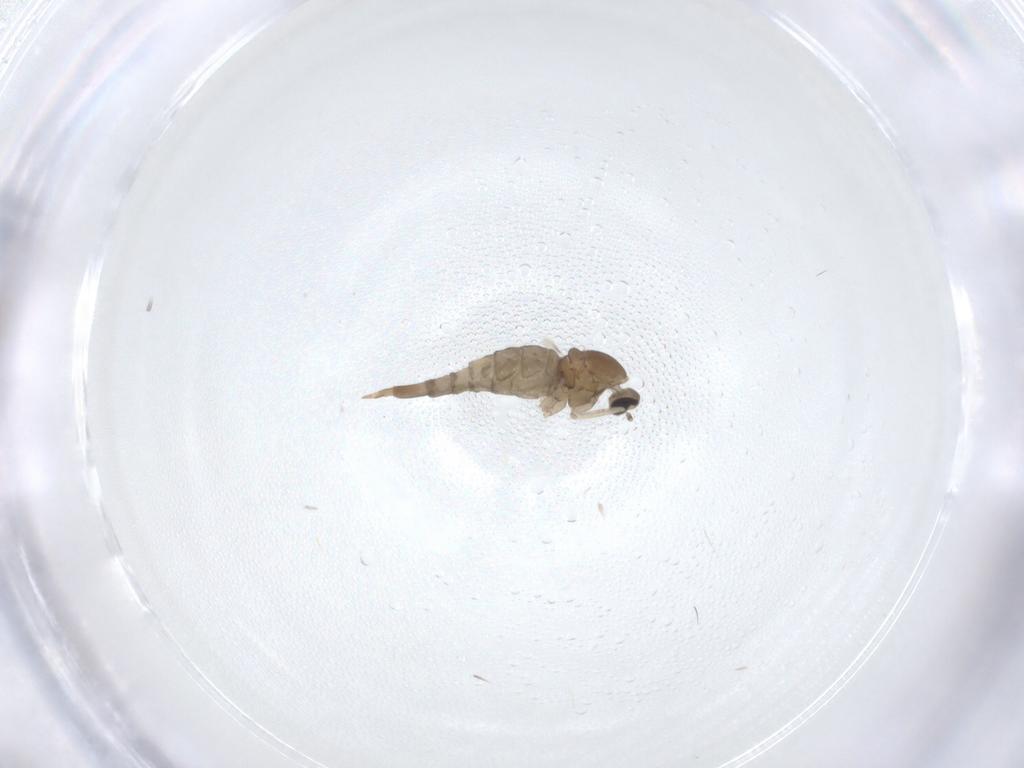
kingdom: Animalia
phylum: Arthropoda
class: Insecta
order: Diptera
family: Cecidomyiidae
